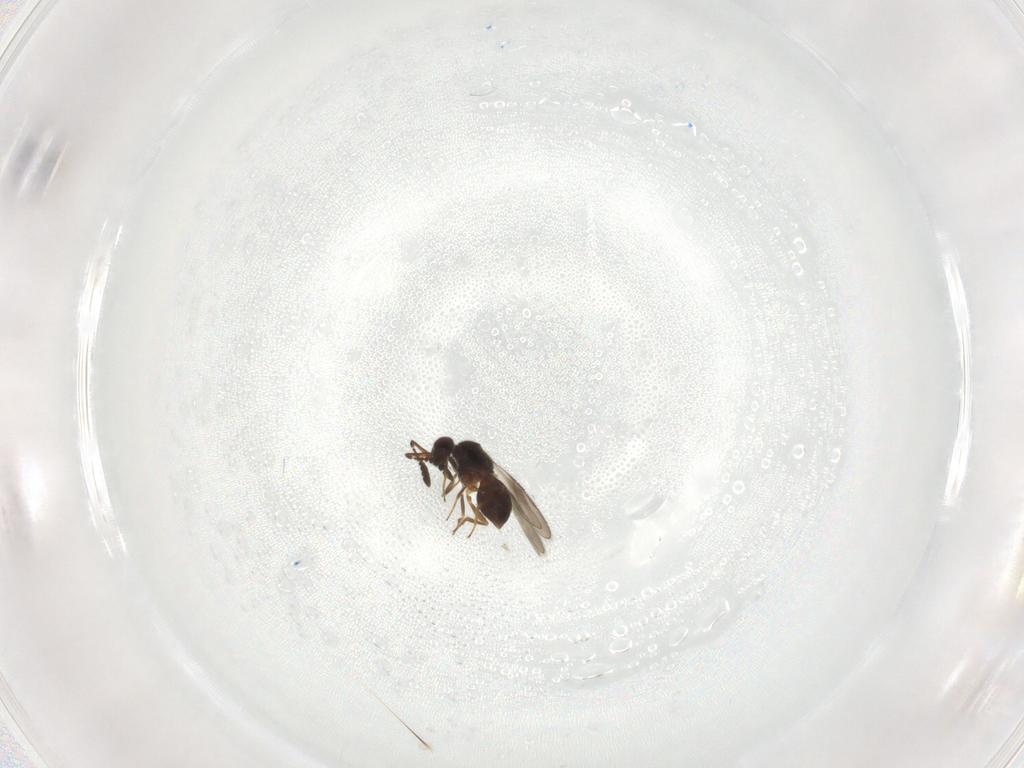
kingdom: Animalia
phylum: Arthropoda
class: Insecta
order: Hymenoptera
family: Ceraphronidae
